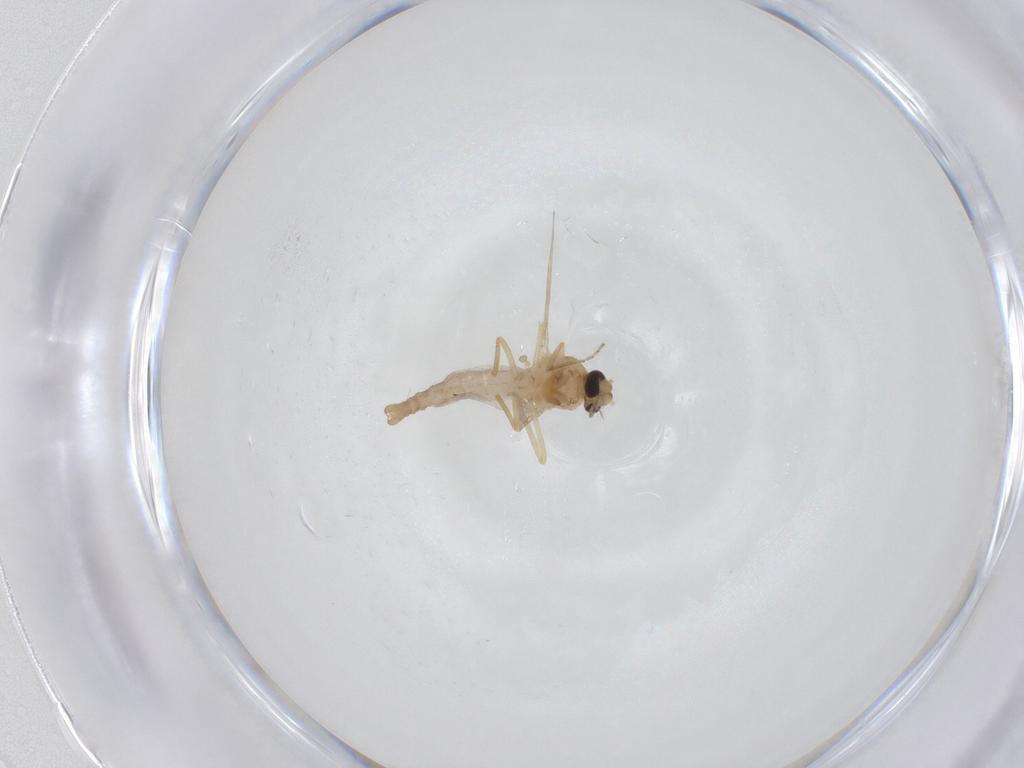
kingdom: Animalia
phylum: Arthropoda
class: Insecta
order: Diptera
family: Ceratopogonidae
